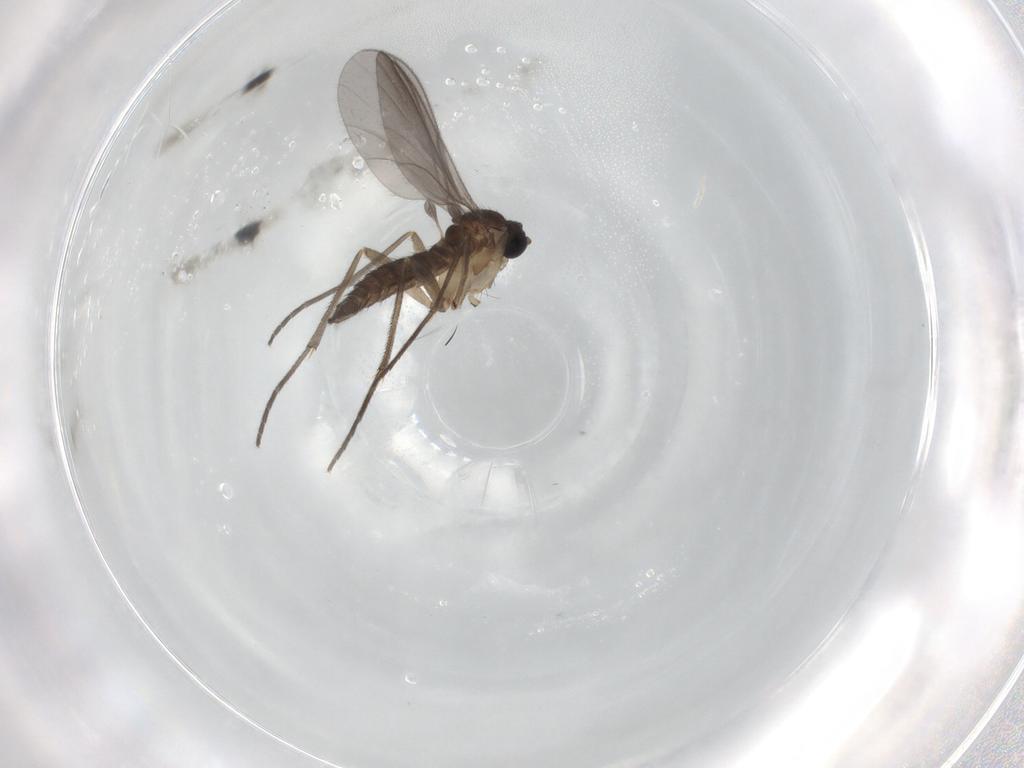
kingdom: Animalia
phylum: Arthropoda
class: Insecta
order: Diptera
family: Sciaridae
